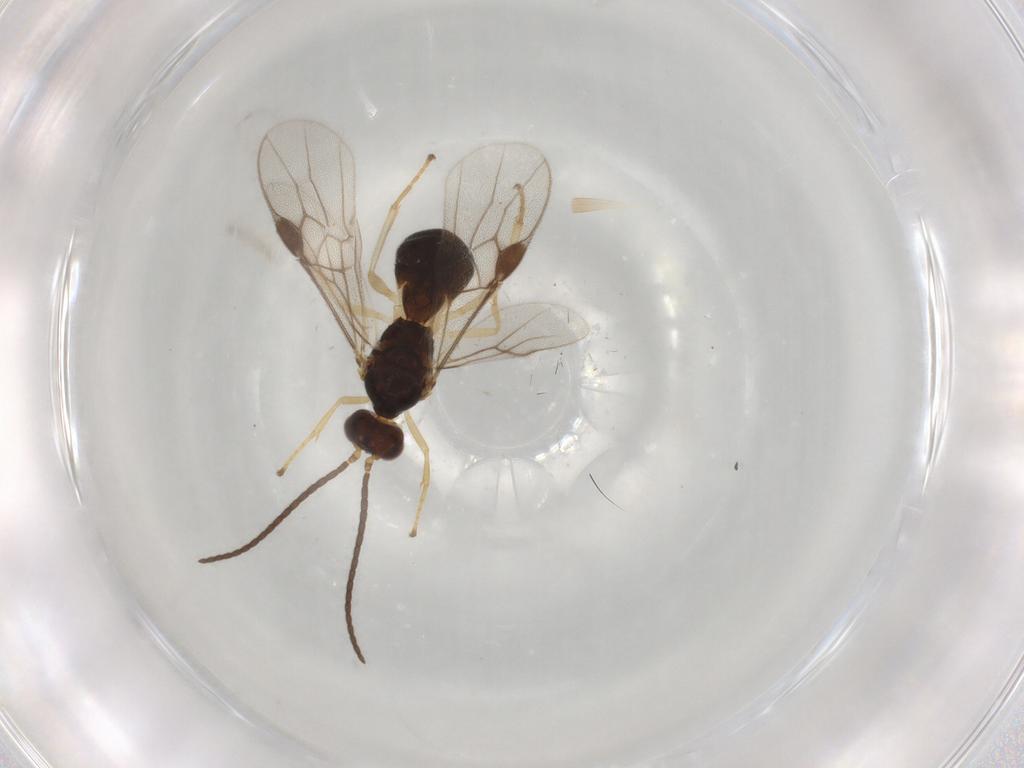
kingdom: Animalia
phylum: Arthropoda
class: Insecta
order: Hymenoptera
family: Braconidae
